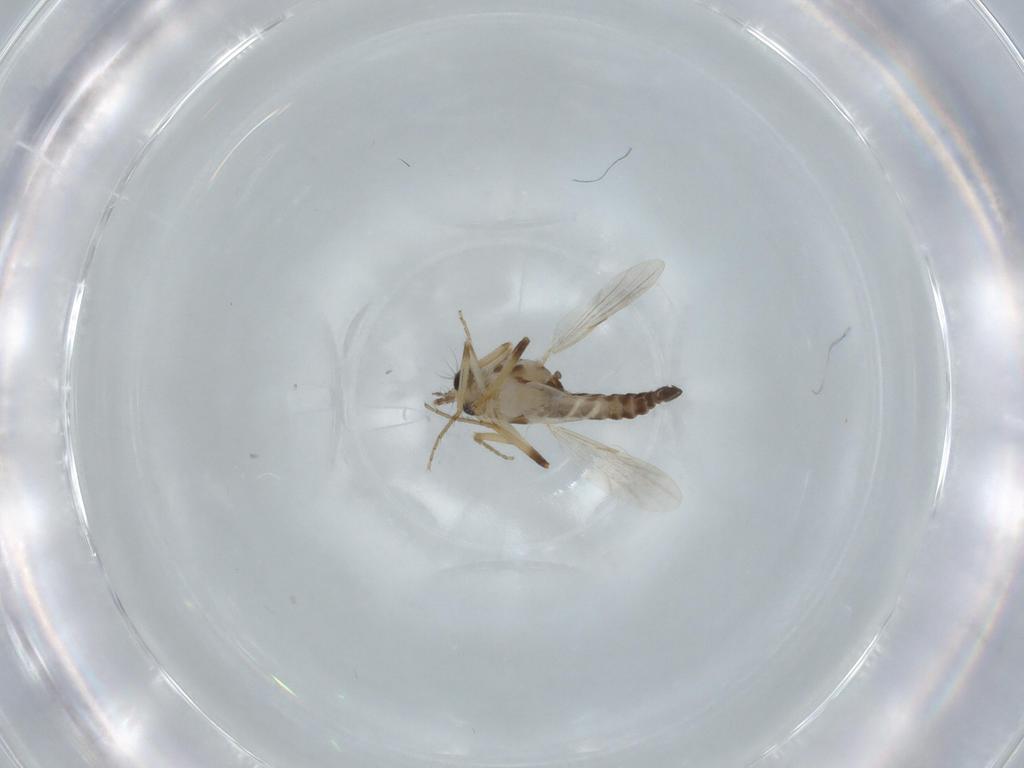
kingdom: Animalia
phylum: Arthropoda
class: Insecta
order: Diptera
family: Ceratopogonidae
